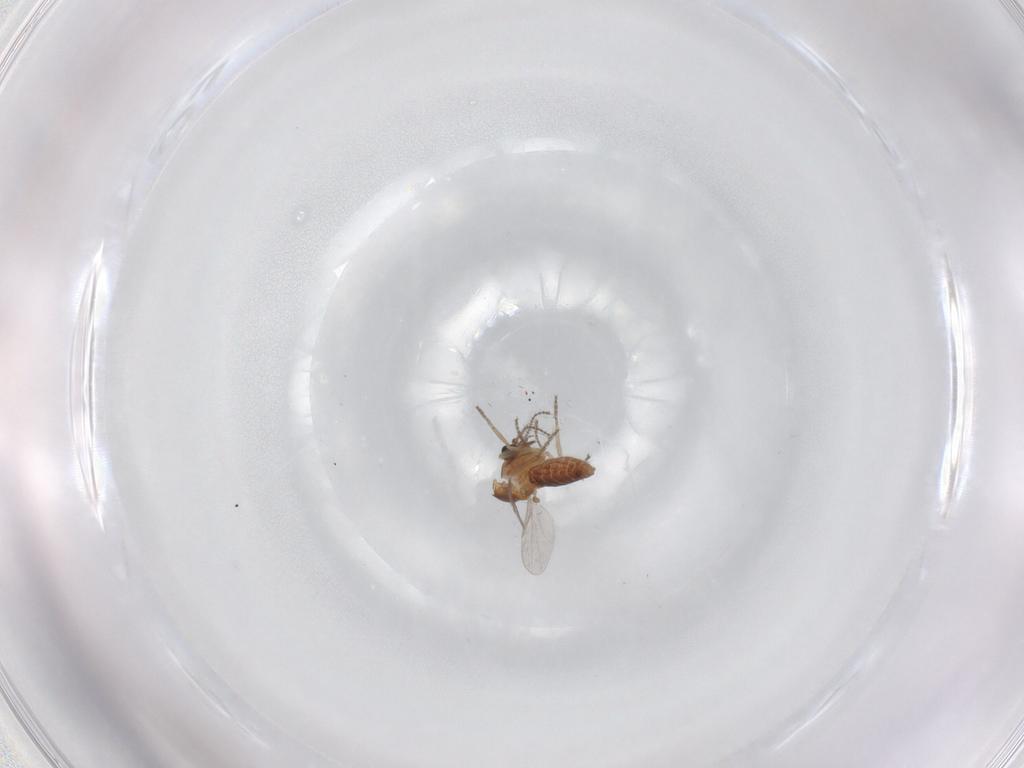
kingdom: Animalia
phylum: Arthropoda
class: Insecta
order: Diptera
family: Ceratopogonidae
